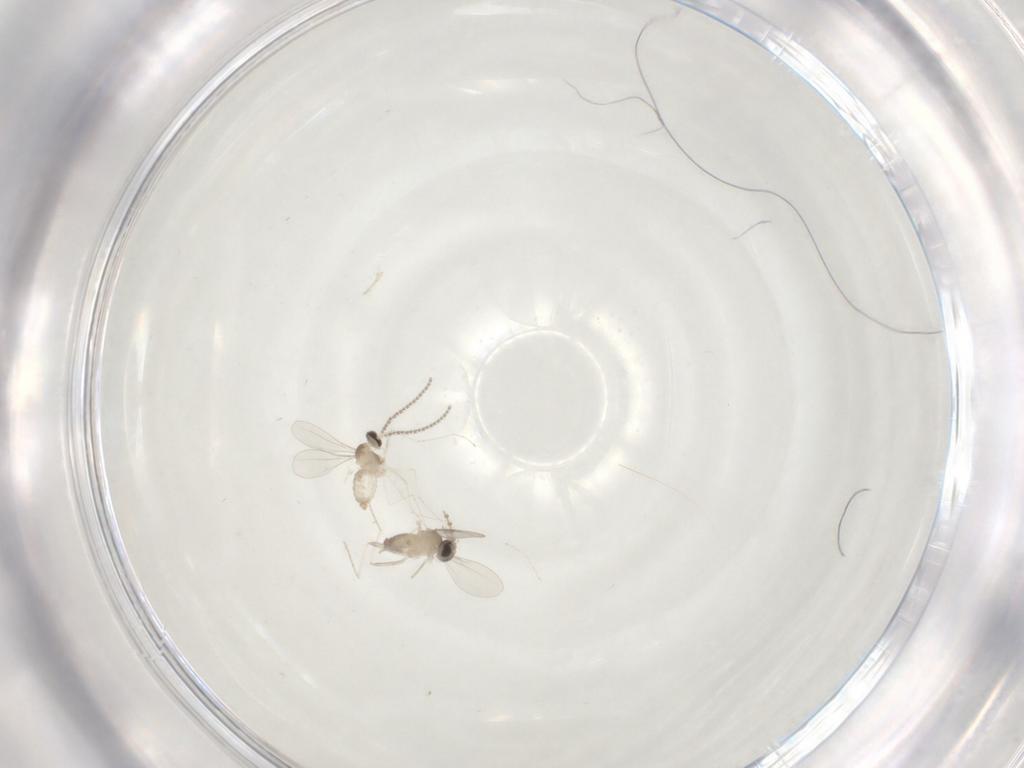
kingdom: Animalia
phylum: Arthropoda
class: Insecta
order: Diptera
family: Cecidomyiidae
